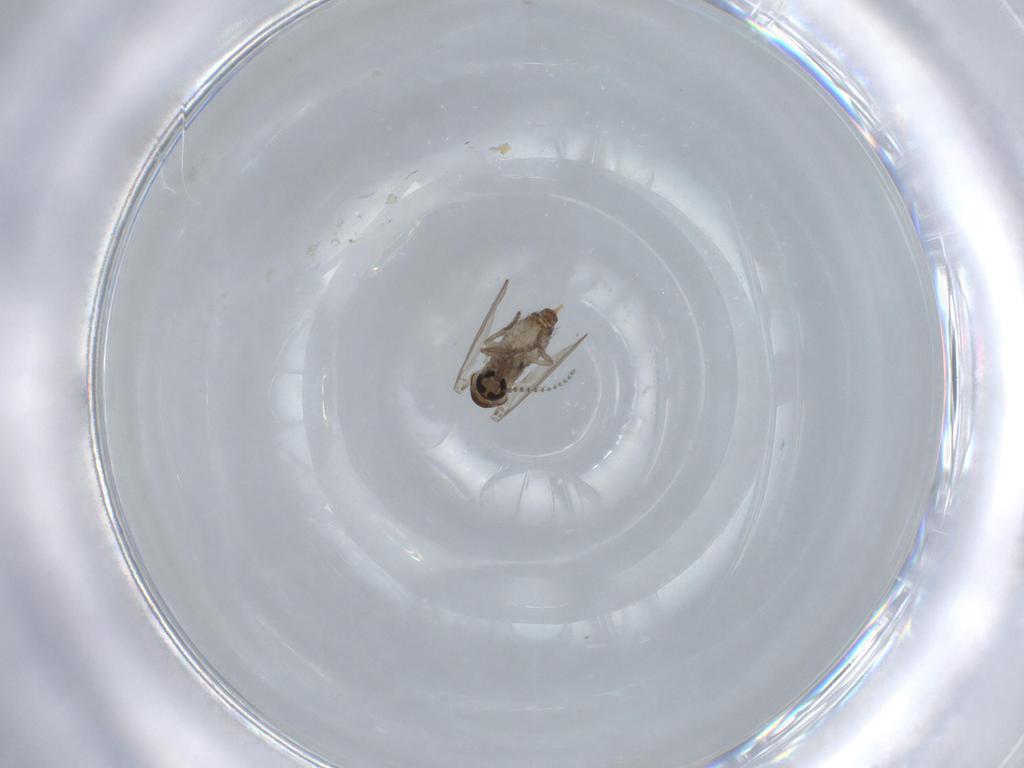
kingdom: Animalia
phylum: Arthropoda
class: Insecta
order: Diptera
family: Psychodidae
